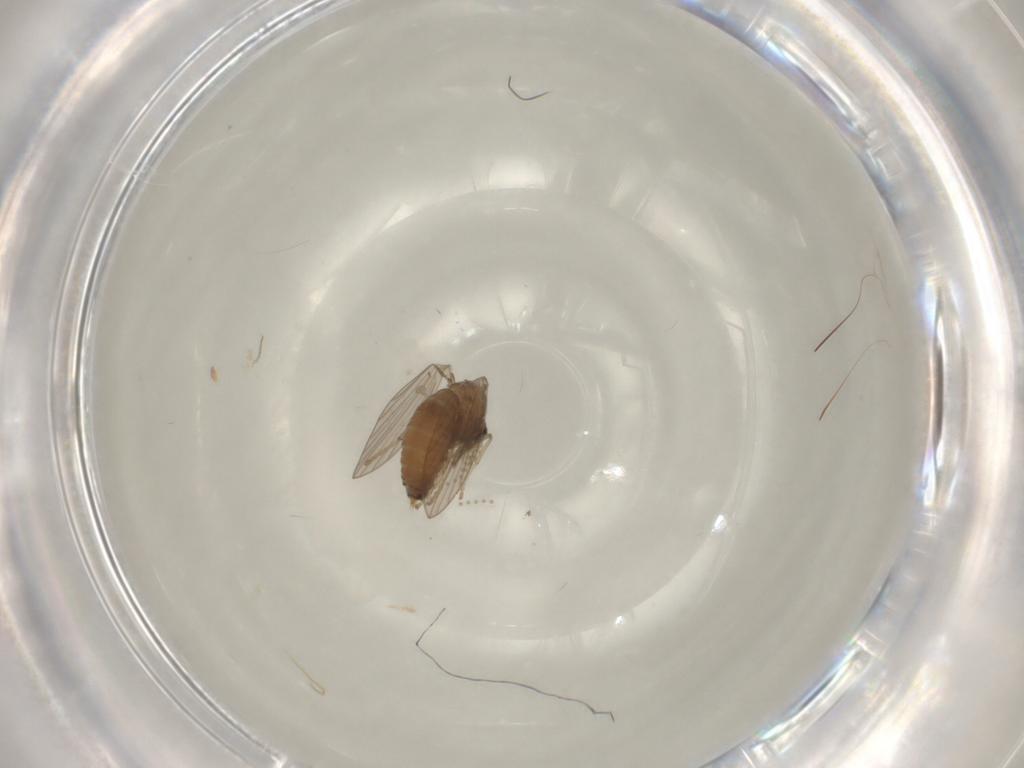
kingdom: Animalia
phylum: Arthropoda
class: Insecta
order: Diptera
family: Psychodidae
